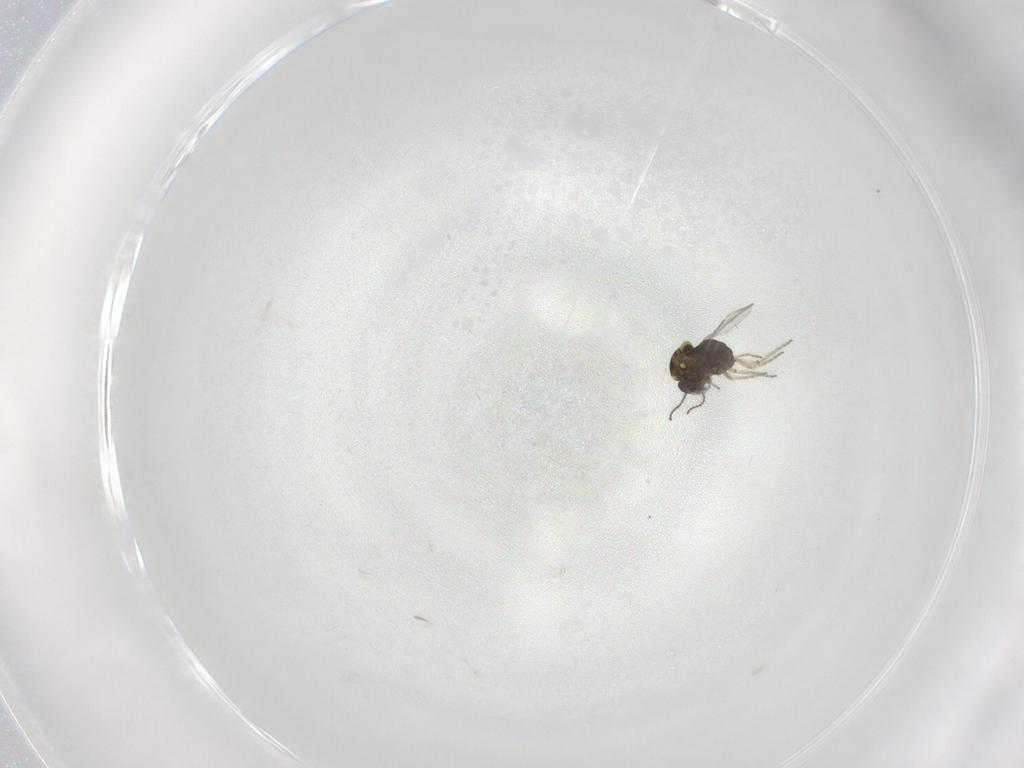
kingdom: Animalia
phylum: Arthropoda
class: Insecta
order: Diptera
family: Ceratopogonidae
